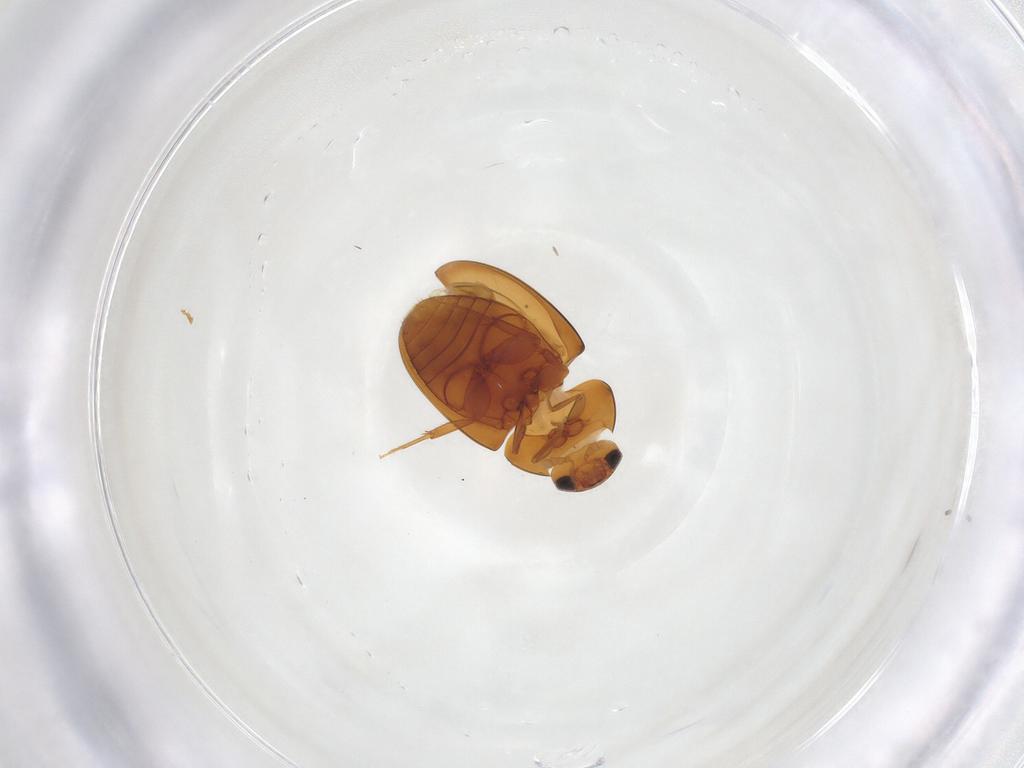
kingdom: Animalia
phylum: Arthropoda
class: Insecta
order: Coleoptera
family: Phalacridae
